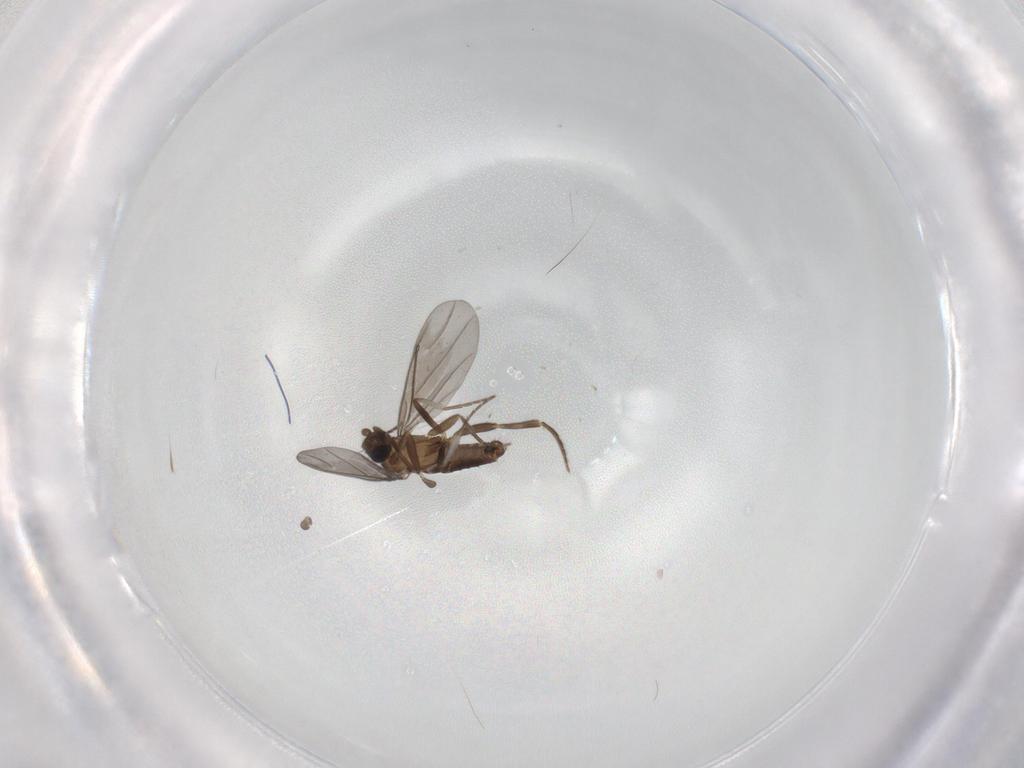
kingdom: Animalia
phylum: Arthropoda
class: Insecta
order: Diptera
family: Phoridae
